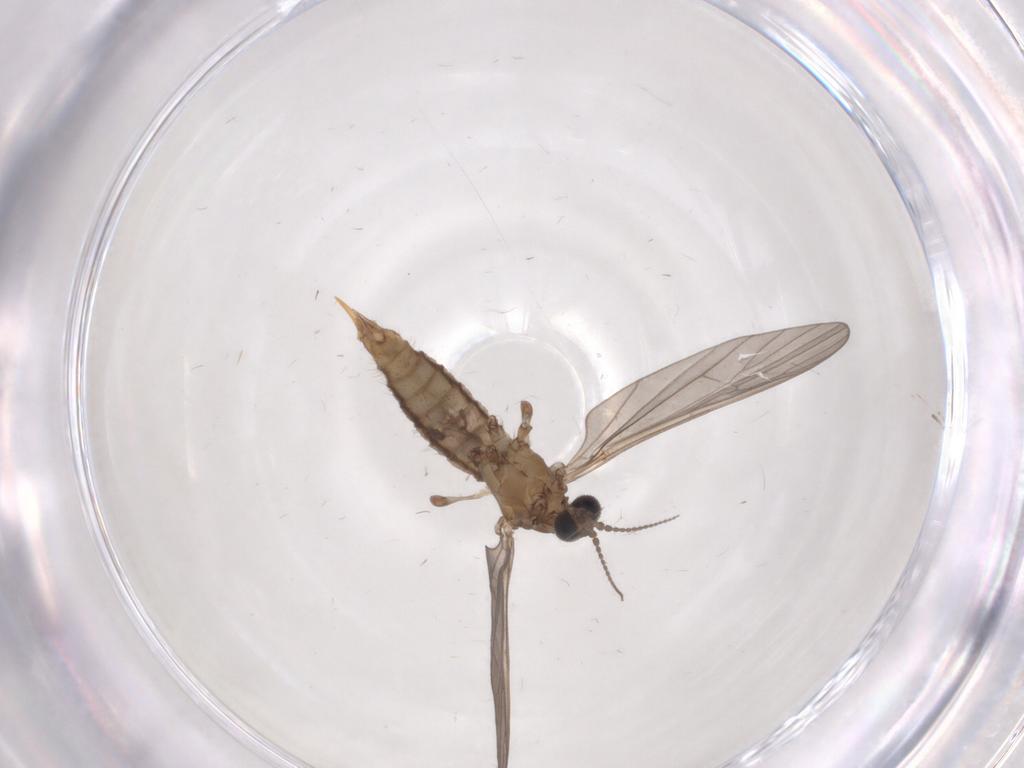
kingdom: Animalia
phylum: Arthropoda
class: Insecta
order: Diptera
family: Limoniidae
